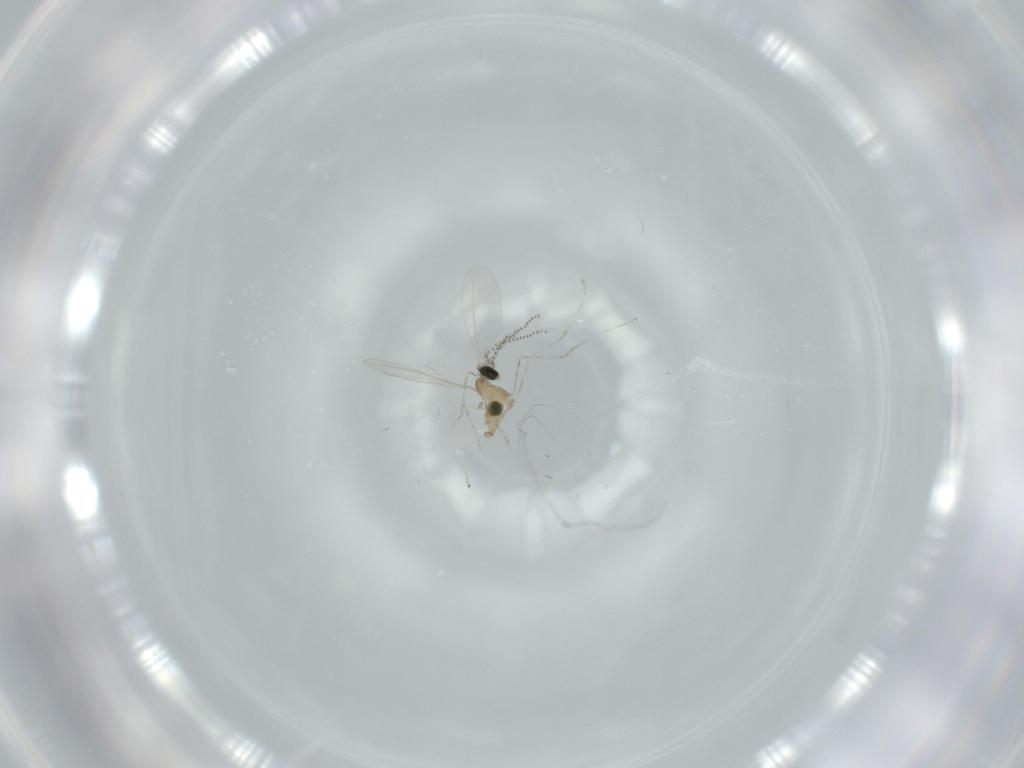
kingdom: Animalia
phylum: Arthropoda
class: Insecta
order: Diptera
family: Cecidomyiidae
